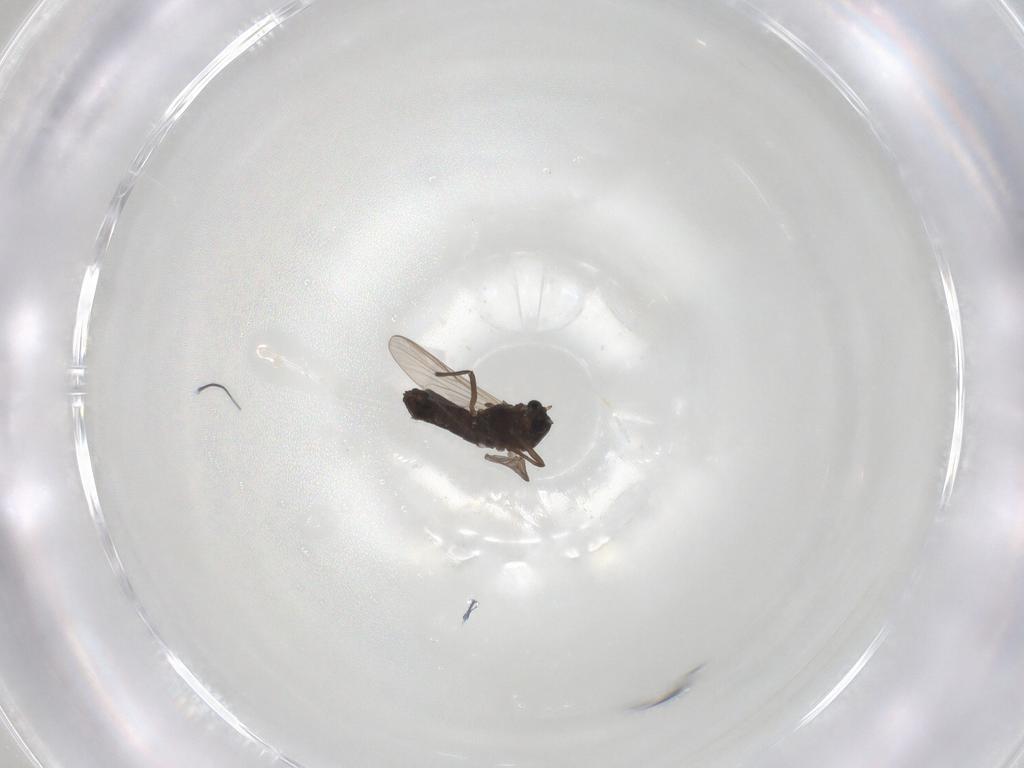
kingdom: Animalia
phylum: Arthropoda
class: Insecta
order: Diptera
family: Chironomidae
